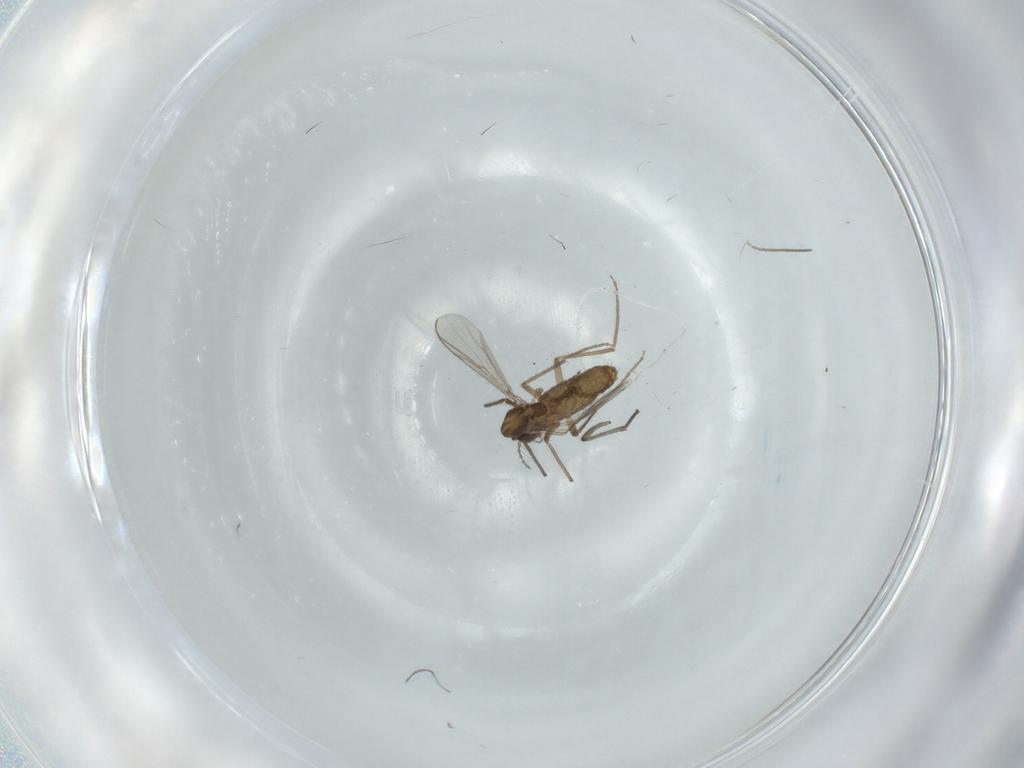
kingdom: Animalia
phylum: Arthropoda
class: Insecta
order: Diptera
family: Chironomidae
